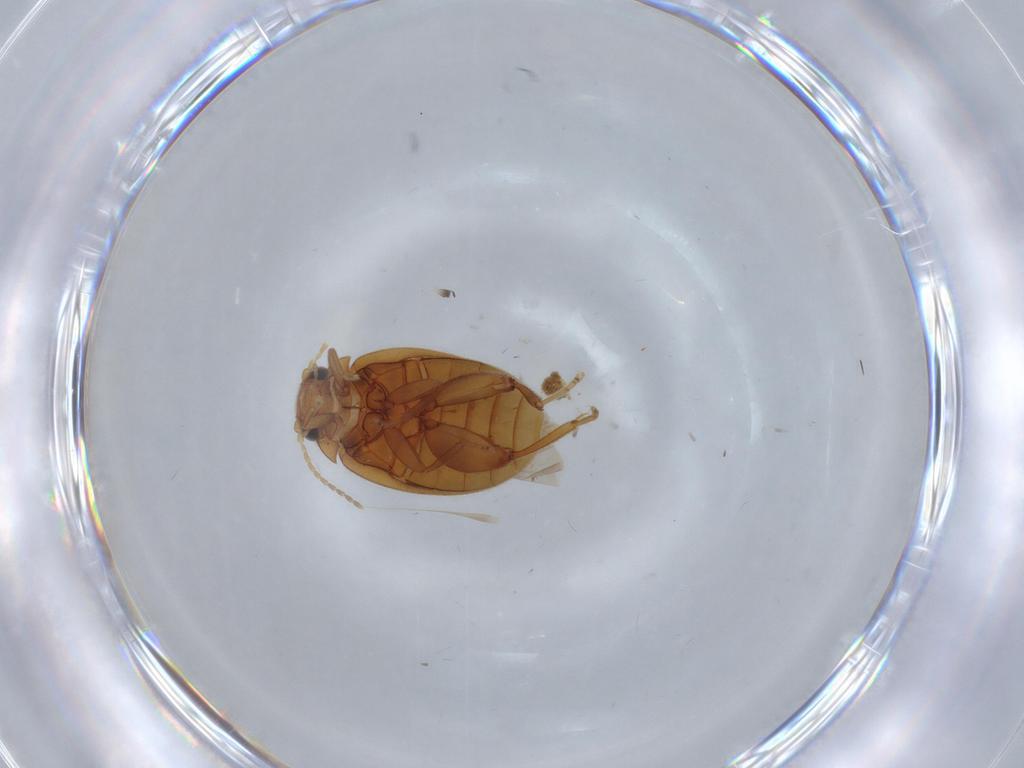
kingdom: Animalia
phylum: Arthropoda
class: Insecta
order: Coleoptera
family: Scirtidae
